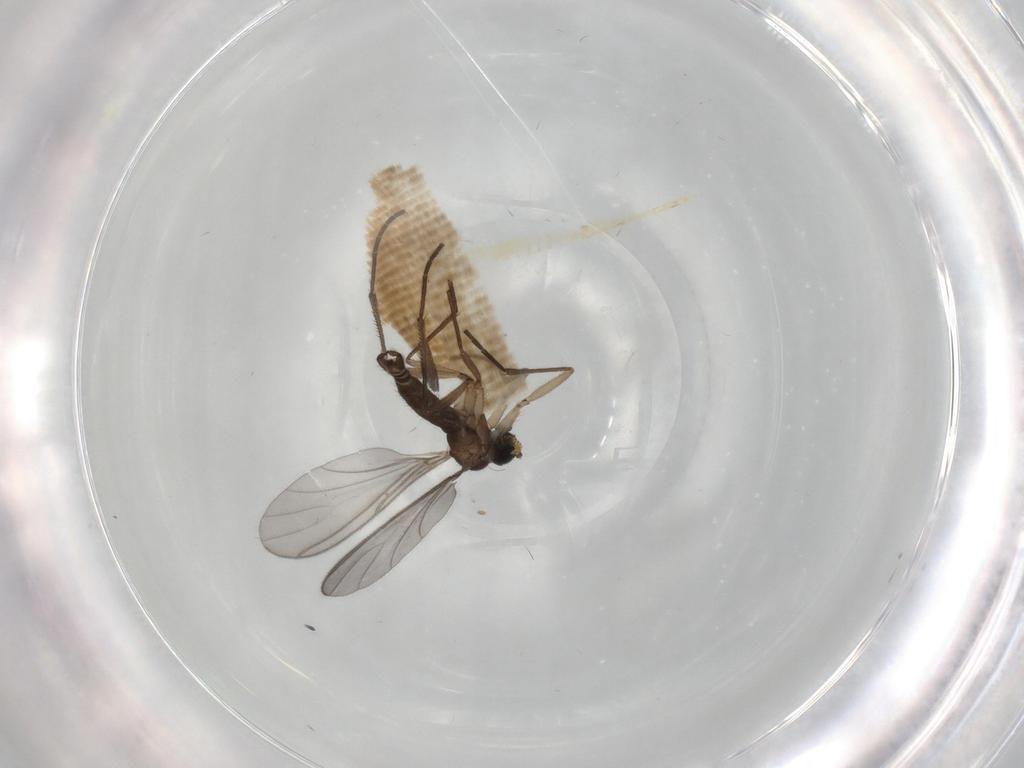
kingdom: Animalia
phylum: Arthropoda
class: Insecta
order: Diptera
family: Sciaridae
